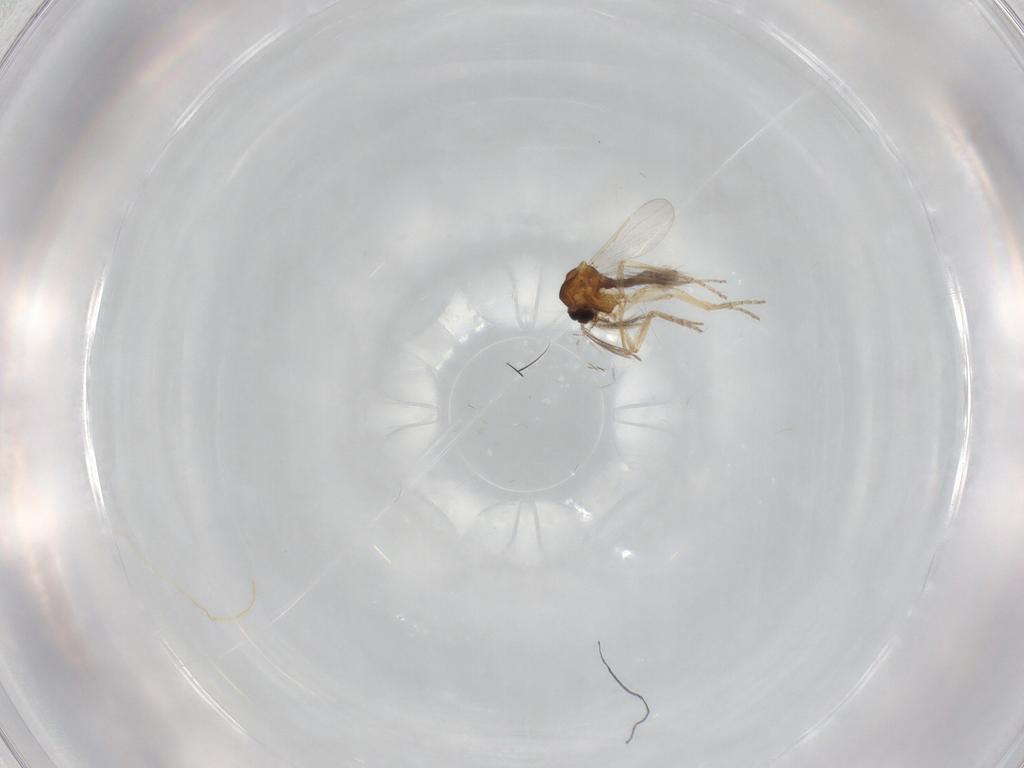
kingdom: Animalia
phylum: Arthropoda
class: Insecta
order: Diptera
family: Dolichopodidae
